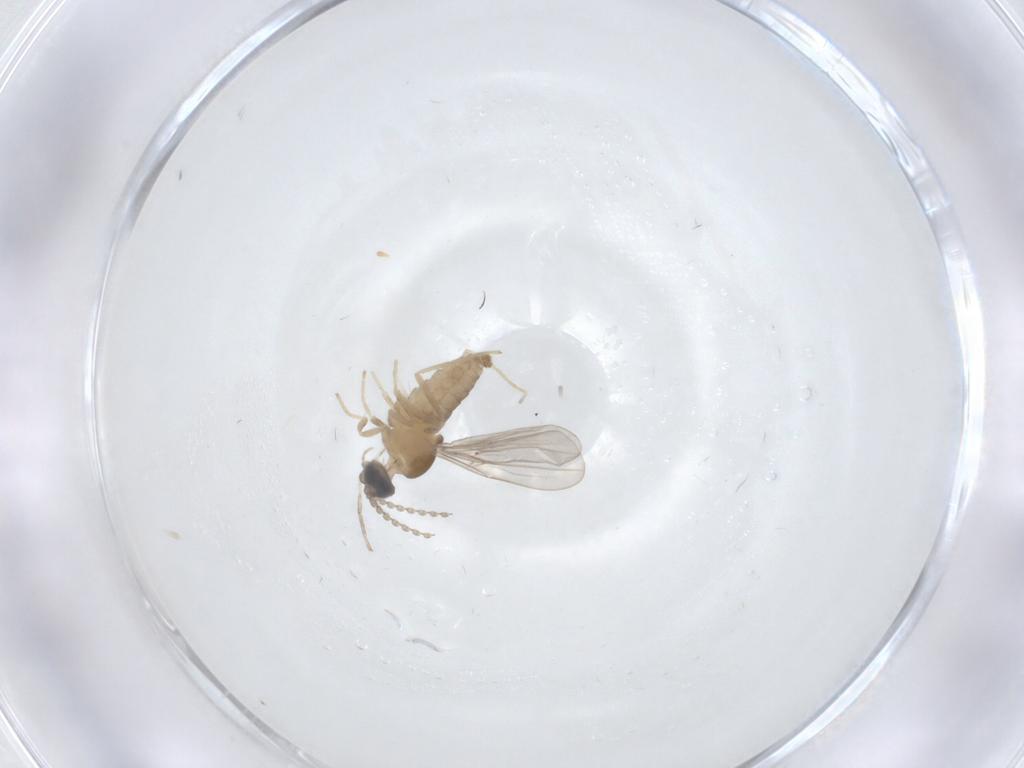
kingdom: Animalia
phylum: Arthropoda
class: Insecta
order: Diptera
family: Cecidomyiidae
